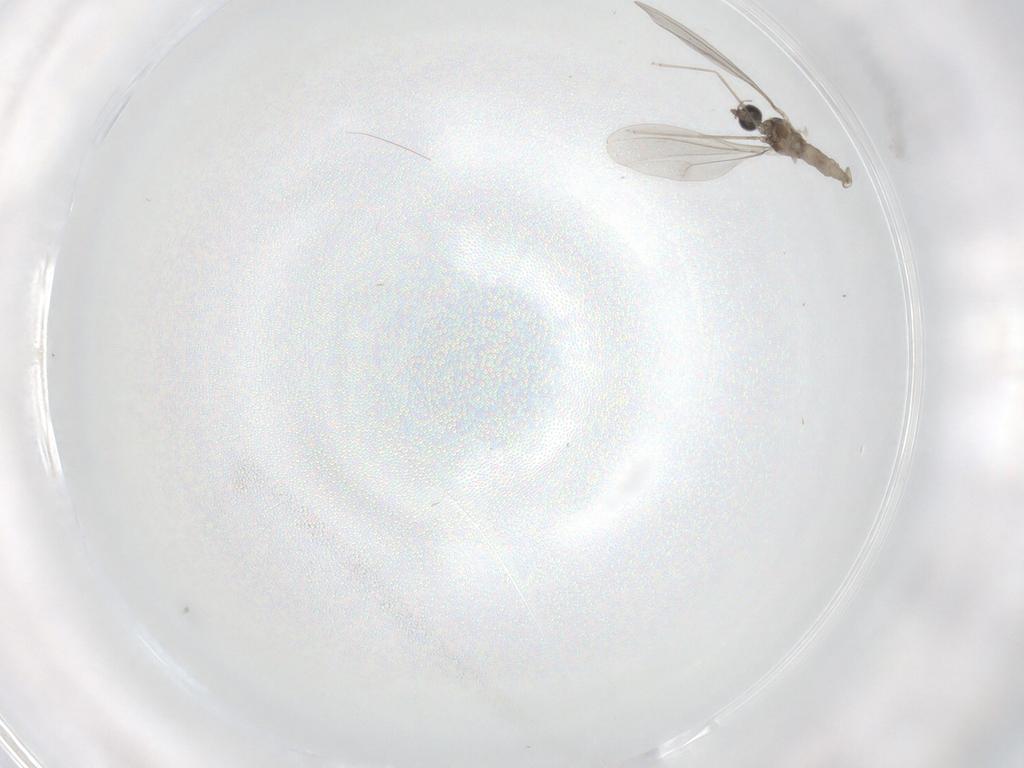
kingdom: Animalia
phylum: Arthropoda
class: Insecta
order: Diptera
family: Cecidomyiidae
